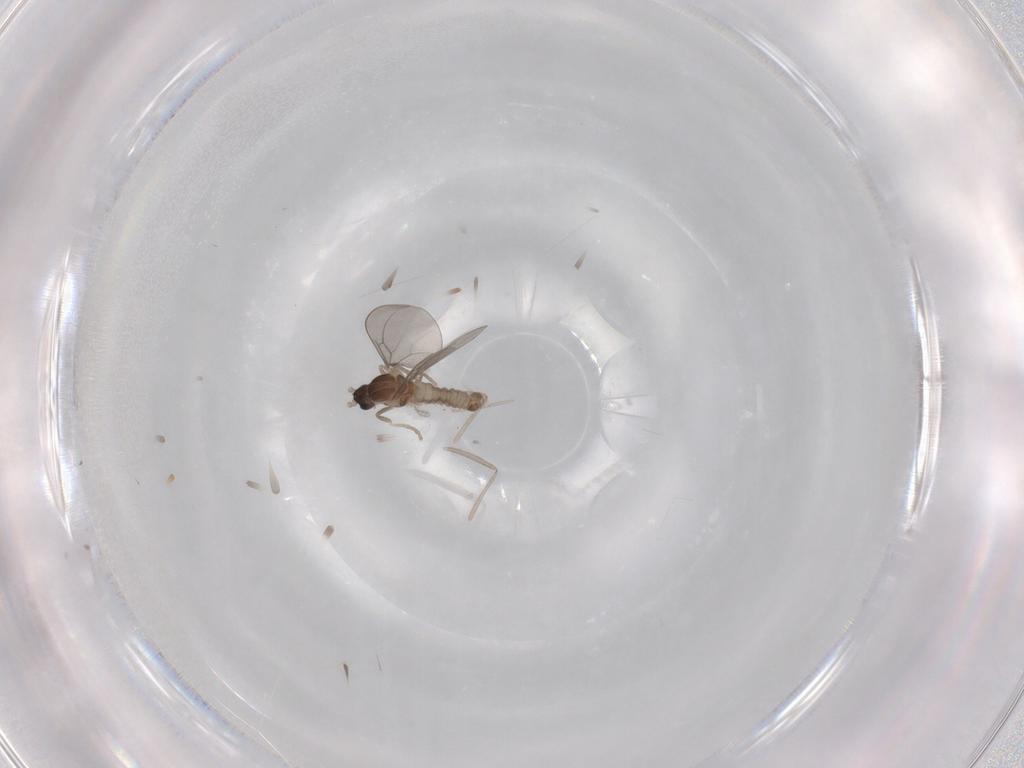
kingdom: Animalia
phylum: Arthropoda
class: Insecta
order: Diptera
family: Cecidomyiidae
